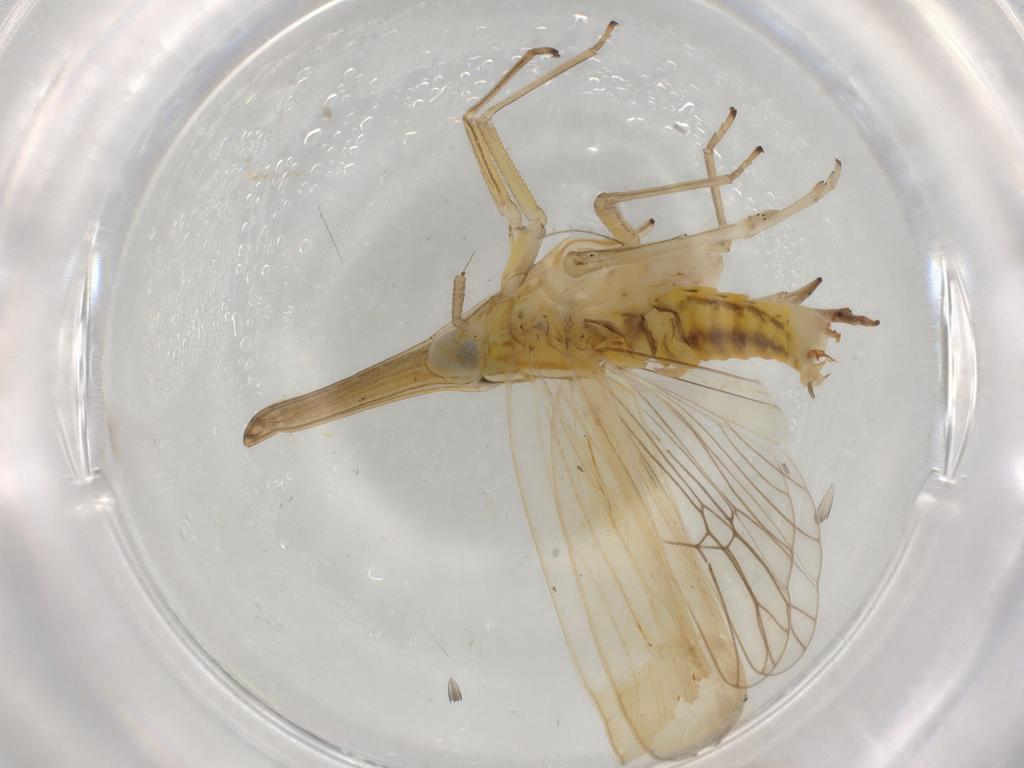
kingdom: Animalia
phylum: Arthropoda
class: Insecta
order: Hemiptera
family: Delphacidae
